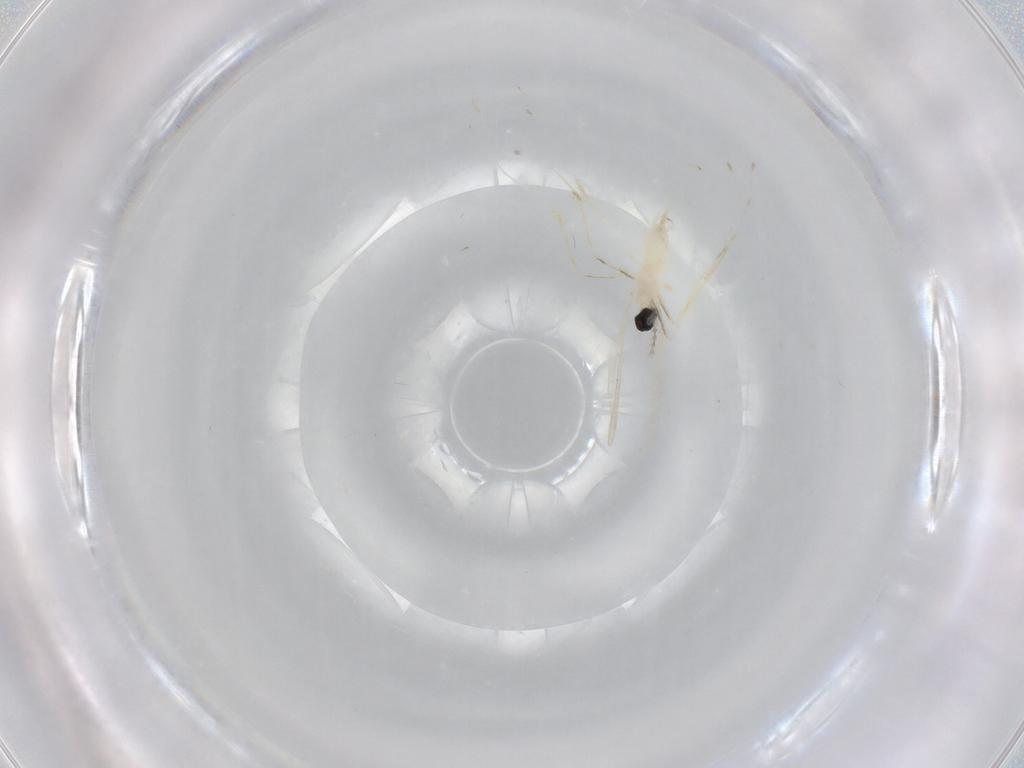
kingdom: Animalia
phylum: Arthropoda
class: Insecta
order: Diptera
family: Cecidomyiidae
